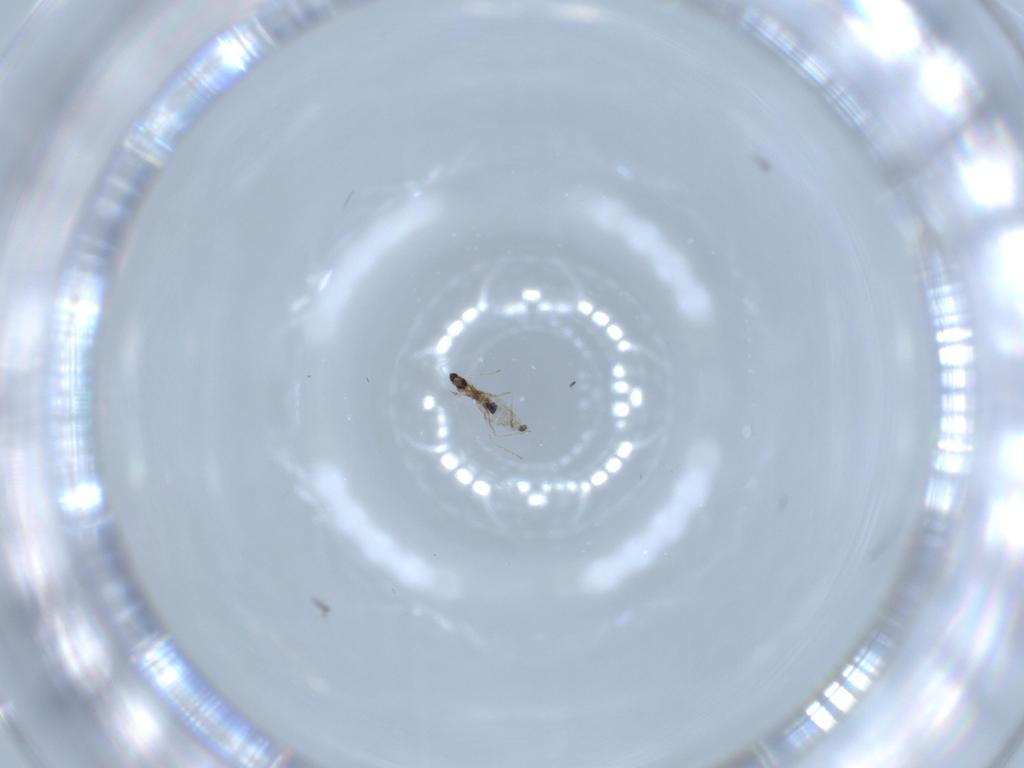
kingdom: Animalia
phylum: Arthropoda
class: Insecta
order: Diptera
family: Cecidomyiidae
